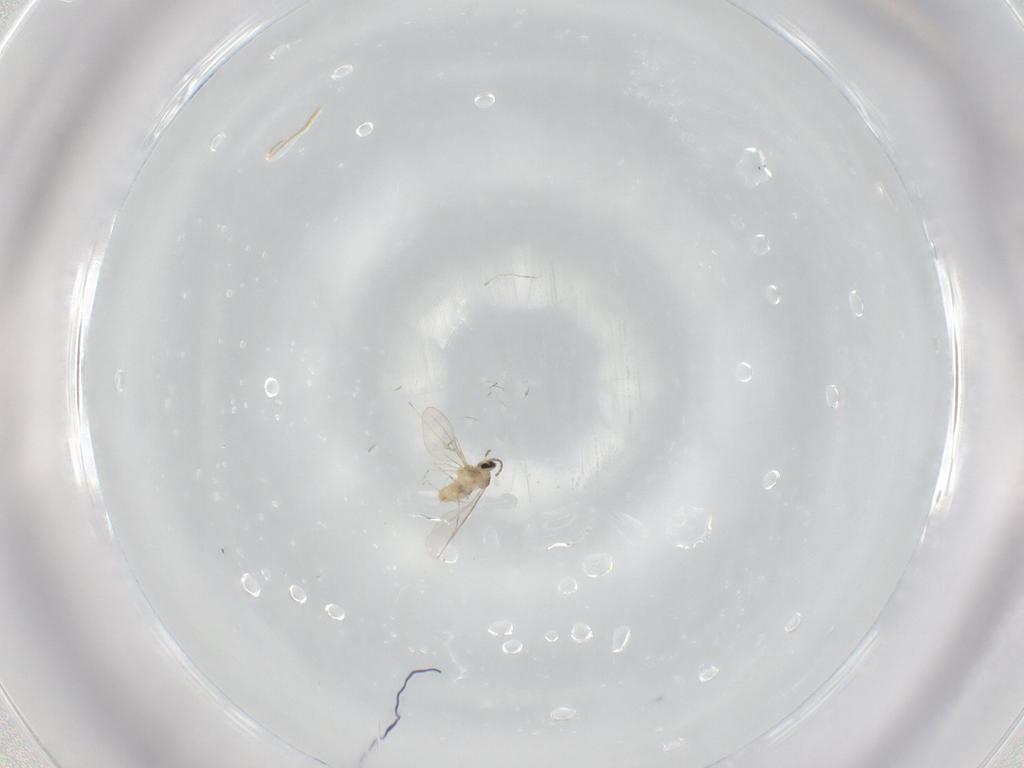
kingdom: Animalia
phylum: Arthropoda
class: Insecta
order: Diptera
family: Cecidomyiidae
